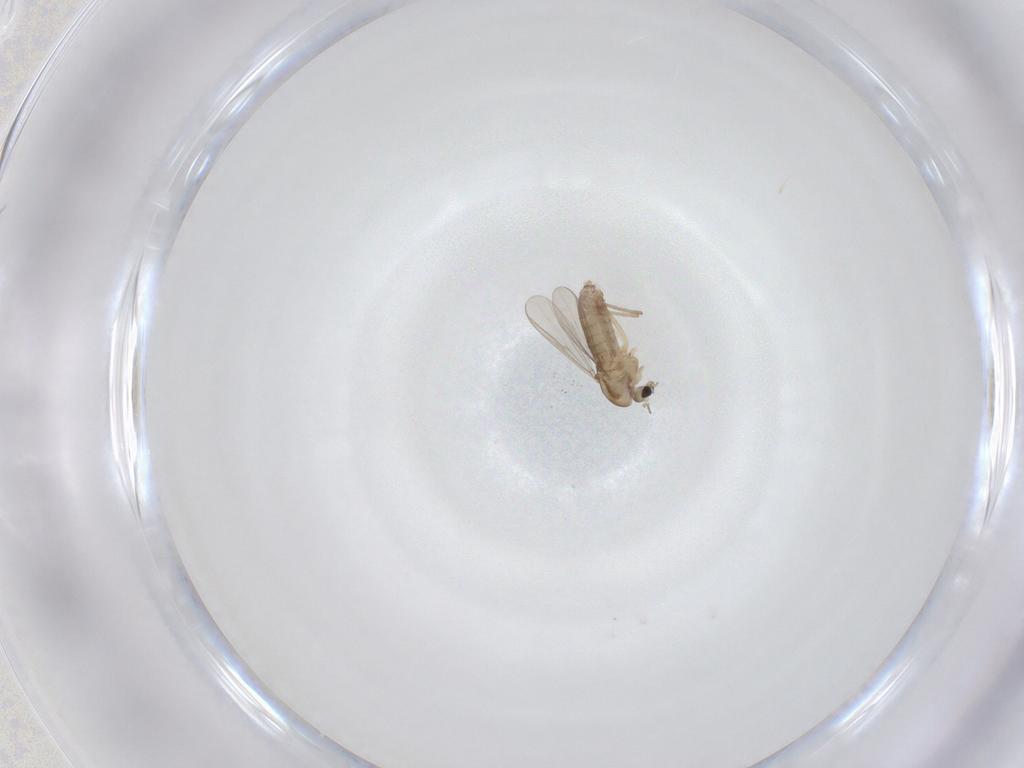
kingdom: Animalia
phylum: Arthropoda
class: Insecta
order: Diptera
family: Chironomidae
